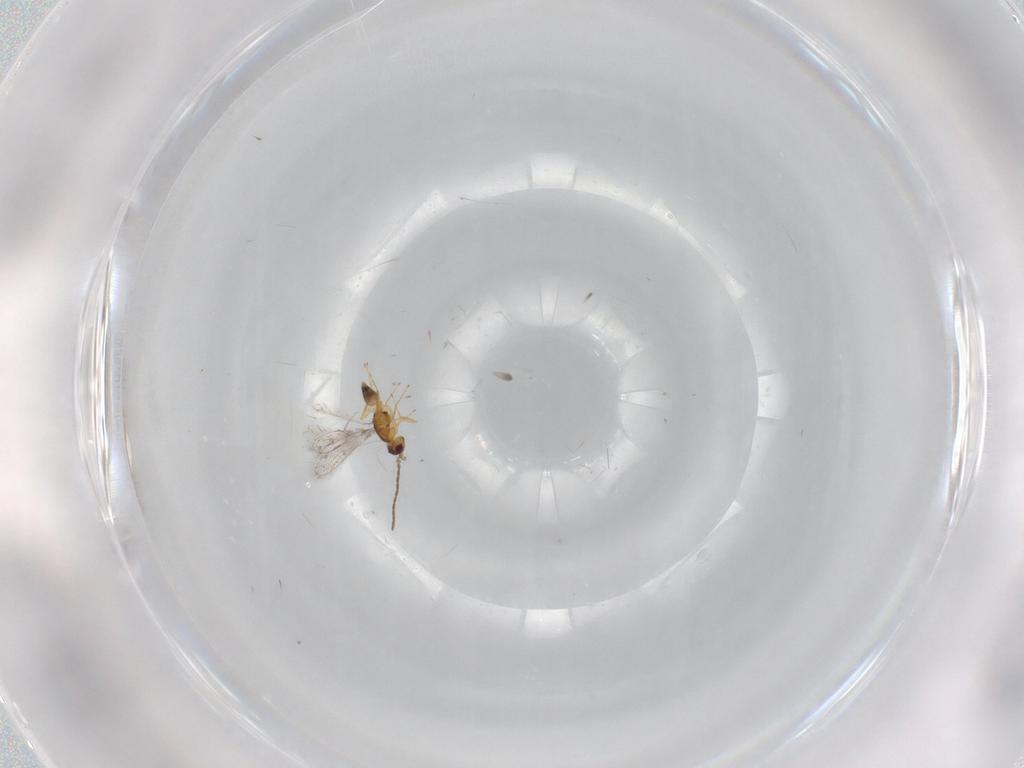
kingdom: Animalia
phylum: Arthropoda
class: Insecta
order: Hymenoptera
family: Mymaridae
